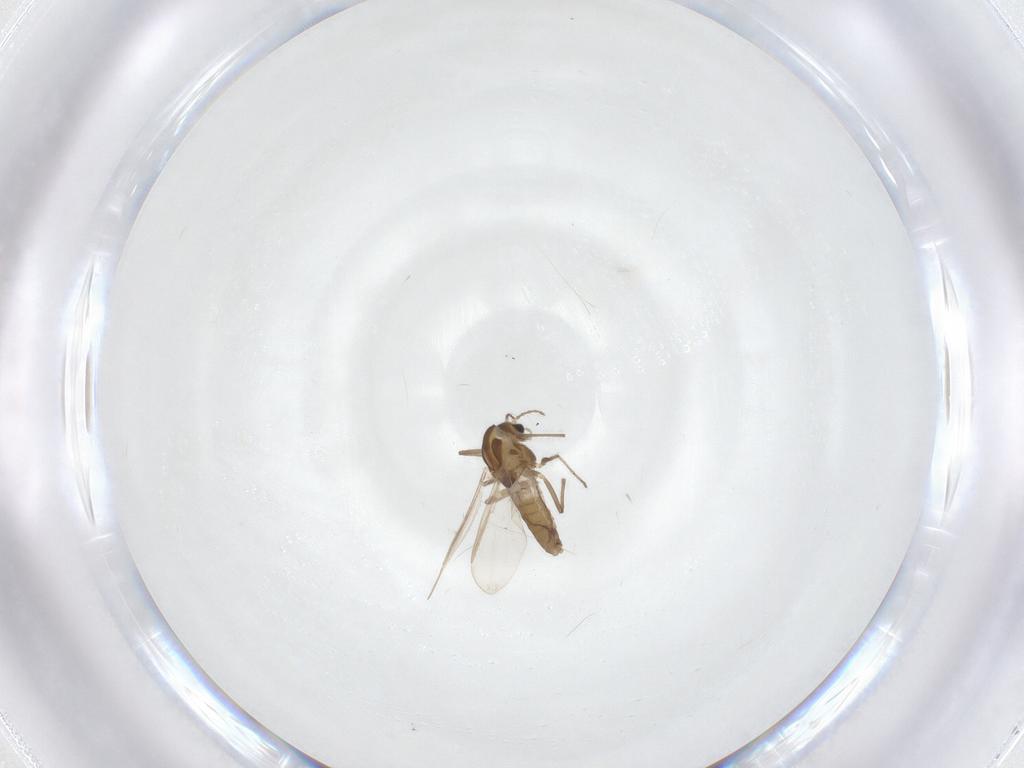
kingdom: Animalia
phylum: Arthropoda
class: Insecta
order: Diptera
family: Chironomidae
